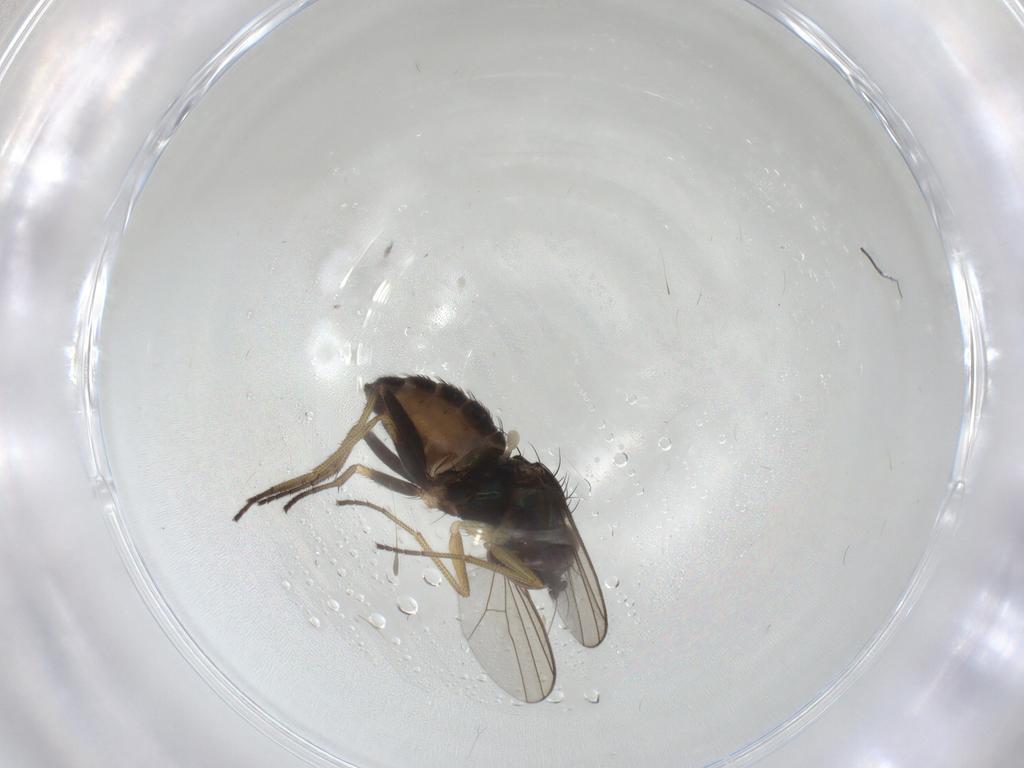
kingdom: Animalia
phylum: Arthropoda
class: Insecta
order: Diptera
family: Dolichopodidae
